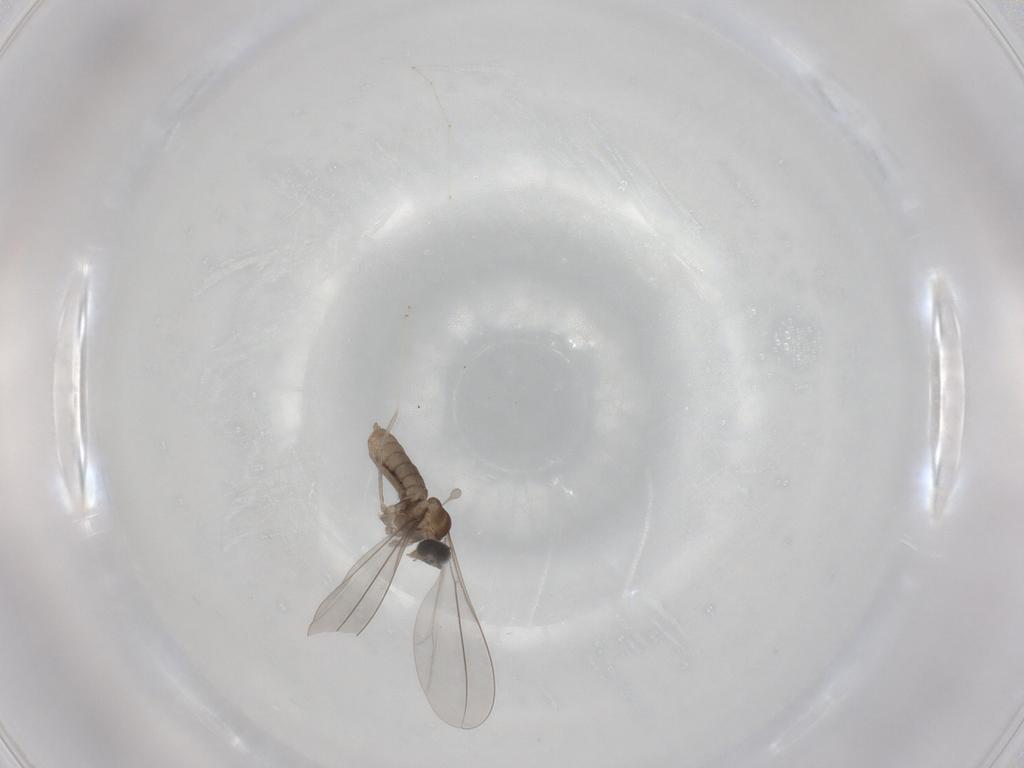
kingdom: Animalia
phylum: Arthropoda
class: Insecta
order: Diptera
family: Cecidomyiidae
